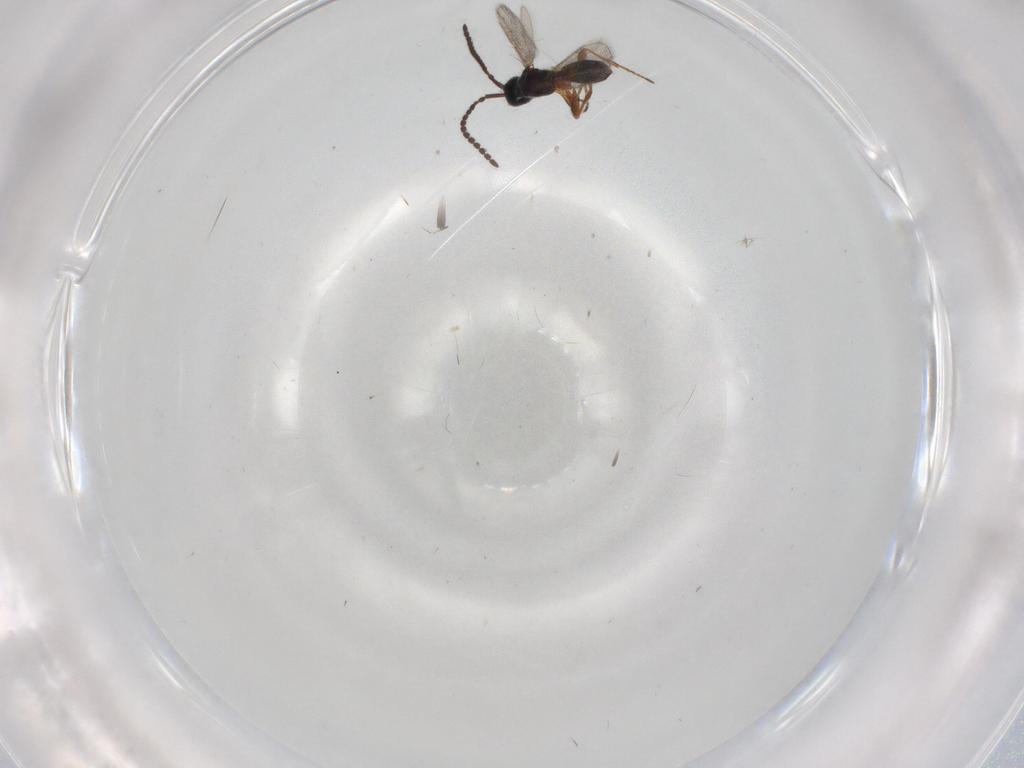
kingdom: Animalia
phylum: Arthropoda
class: Insecta
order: Hymenoptera
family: Diapriidae
